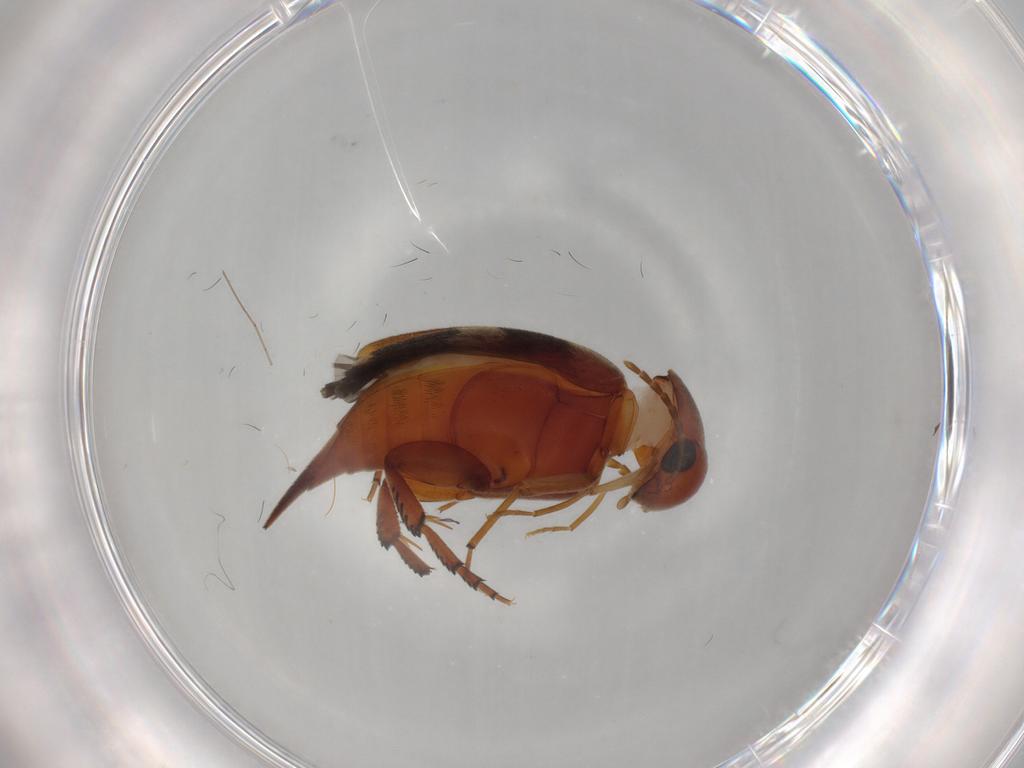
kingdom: Animalia
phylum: Arthropoda
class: Insecta
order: Coleoptera
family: Mordellidae
